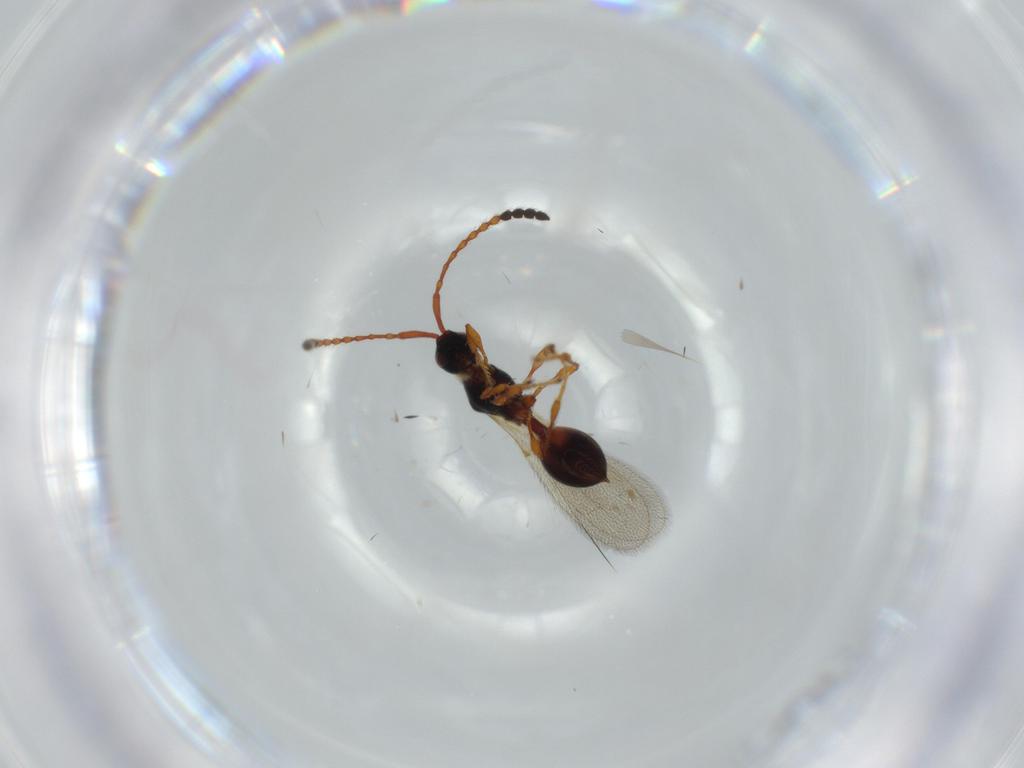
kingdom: Animalia
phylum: Arthropoda
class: Insecta
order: Hymenoptera
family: Diapriidae
